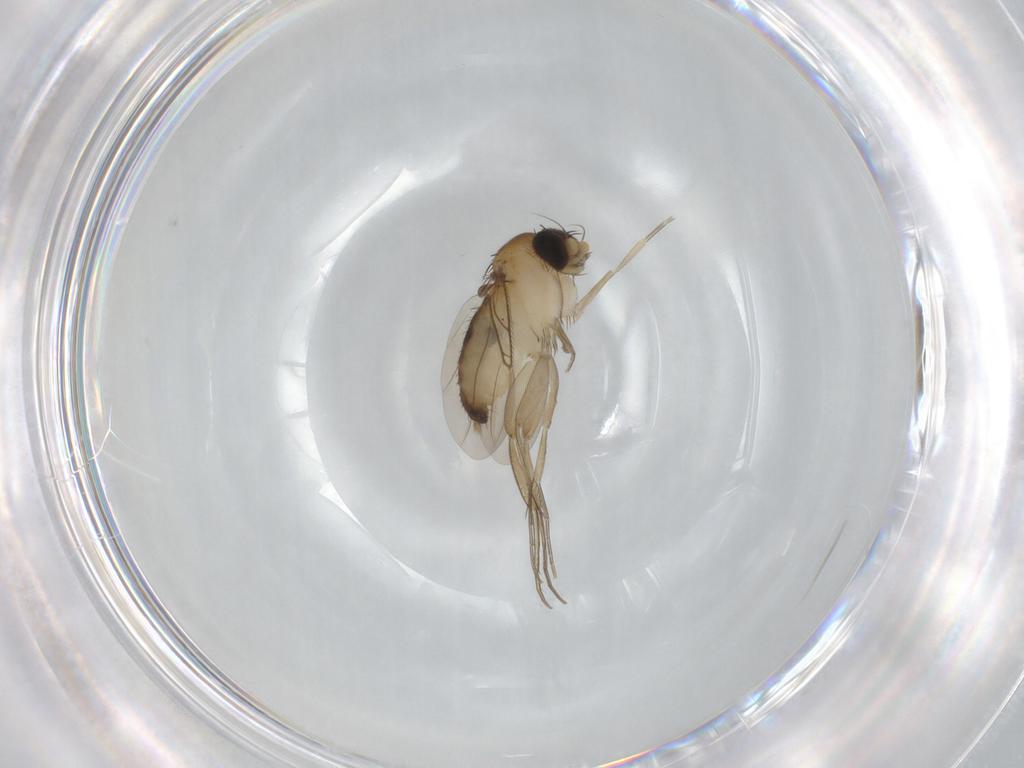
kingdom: Animalia
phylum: Arthropoda
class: Insecta
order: Diptera
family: Phoridae
